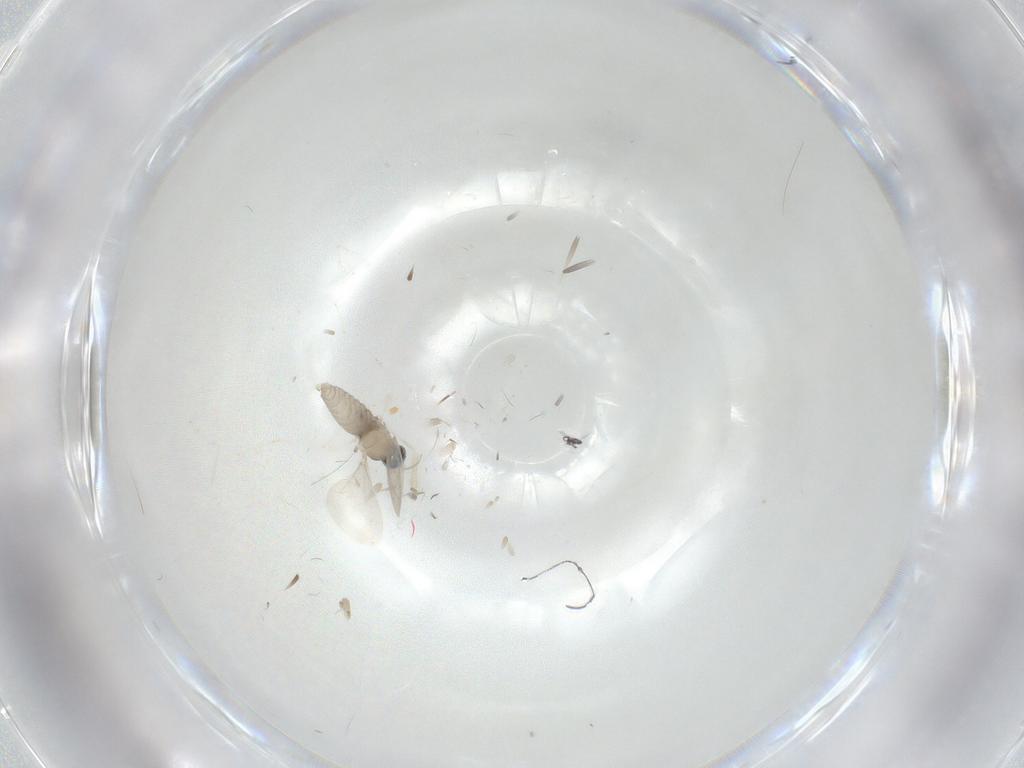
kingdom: Animalia
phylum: Arthropoda
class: Insecta
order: Diptera
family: Cecidomyiidae
